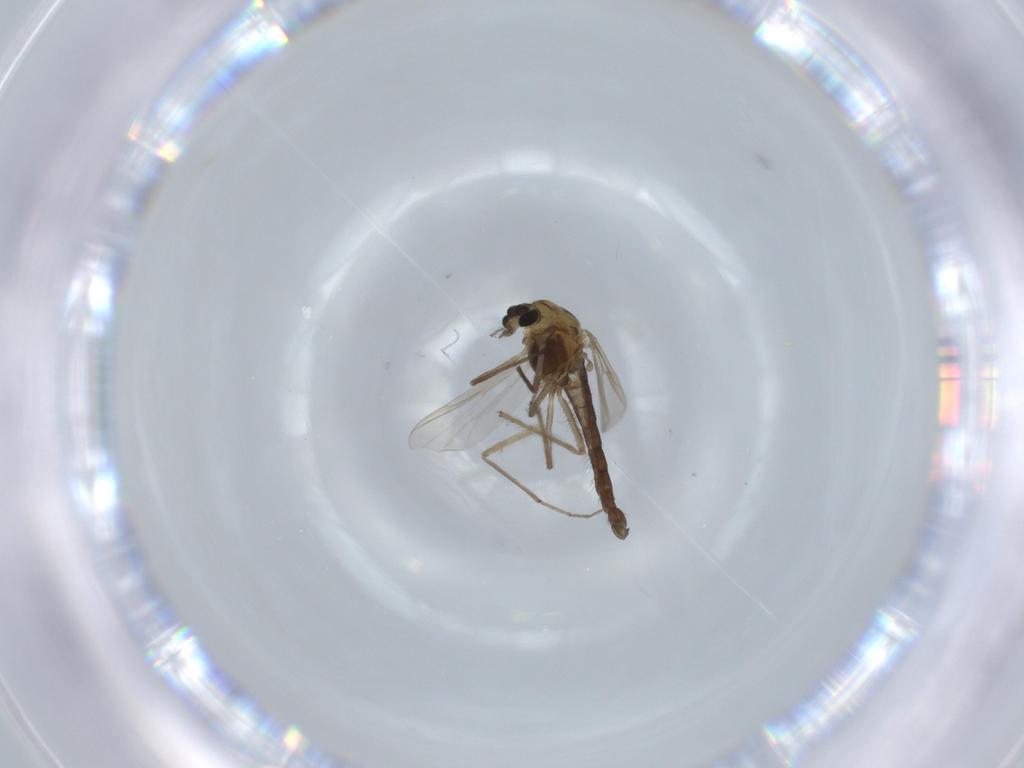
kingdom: Animalia
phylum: Arthropoda
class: Insecta
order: Diptera
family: Chironomidae
